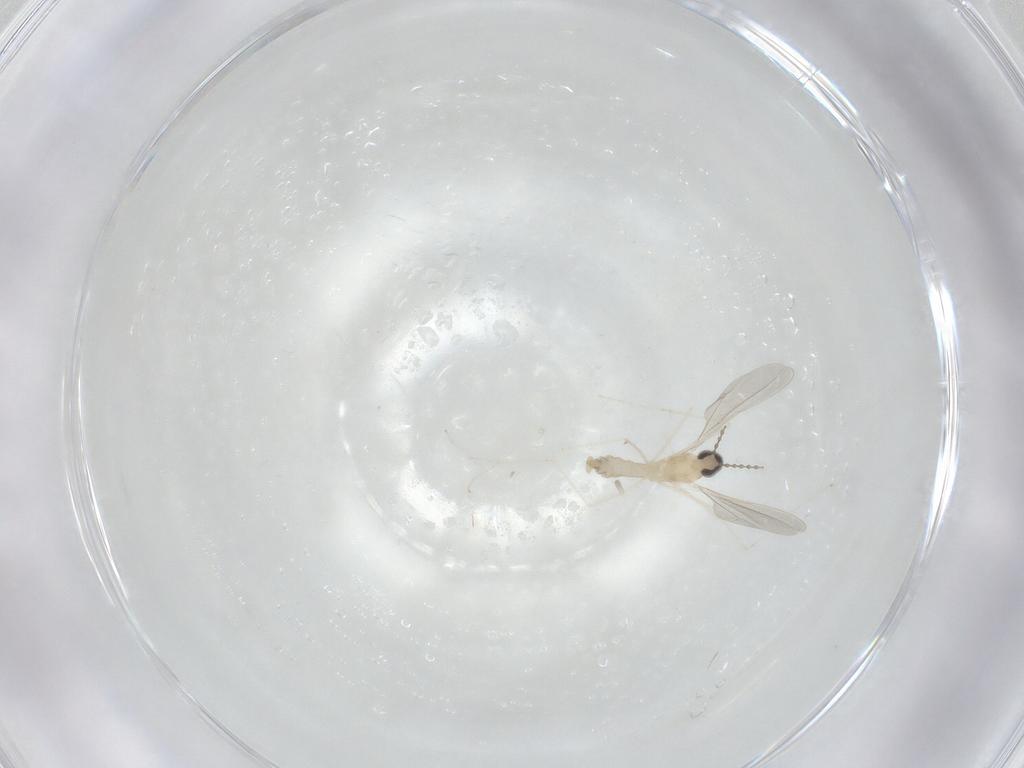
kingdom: Animalia
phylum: Arthropoda
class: Insecta
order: Diptera
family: Cecidomyiidae
